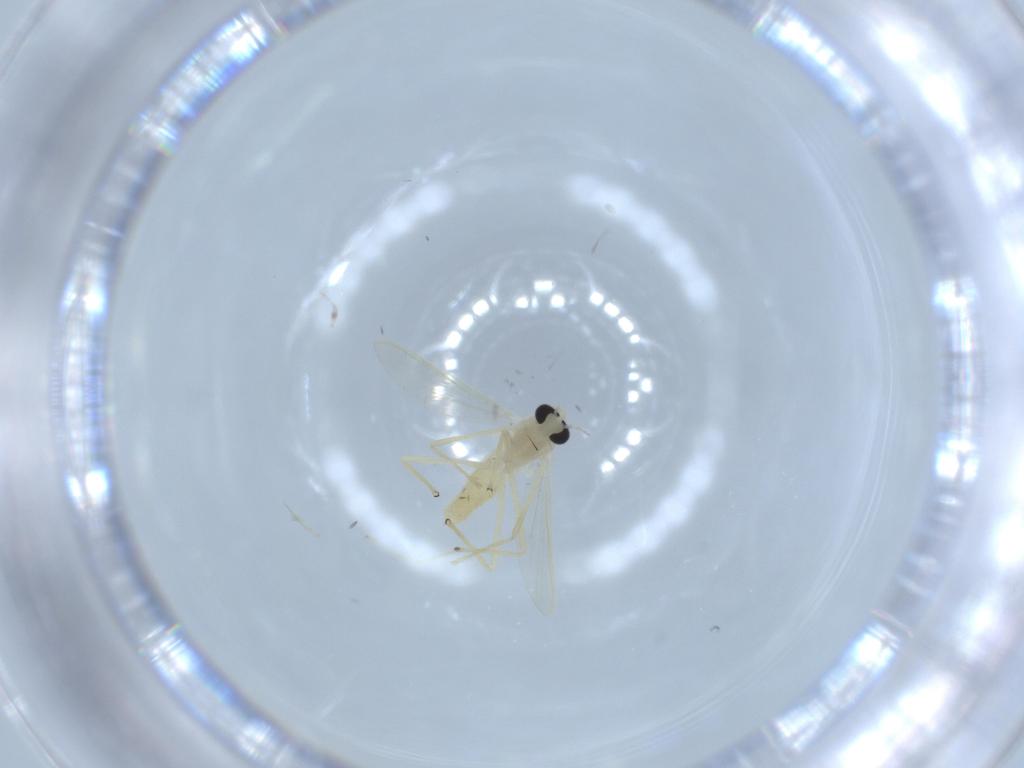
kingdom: Animalia
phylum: Arthropoda
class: Insecta
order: Diptera
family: Chironomidae
